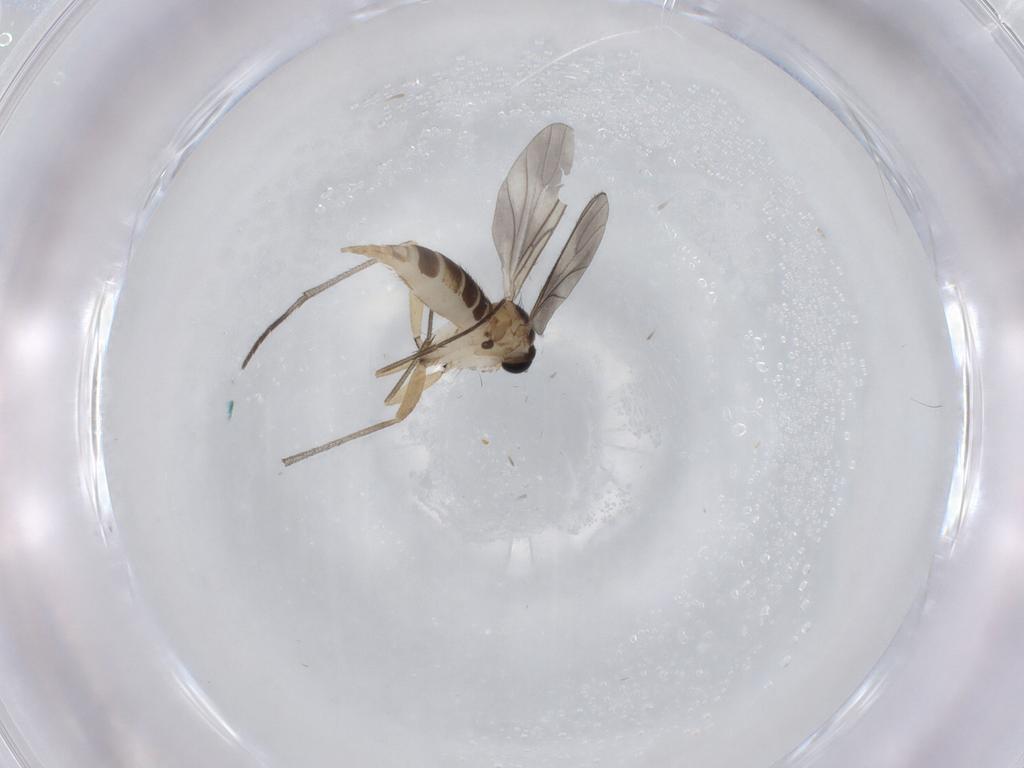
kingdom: Animalia
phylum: Arthropoda
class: Insecta
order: Diptera
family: Sciaridae
